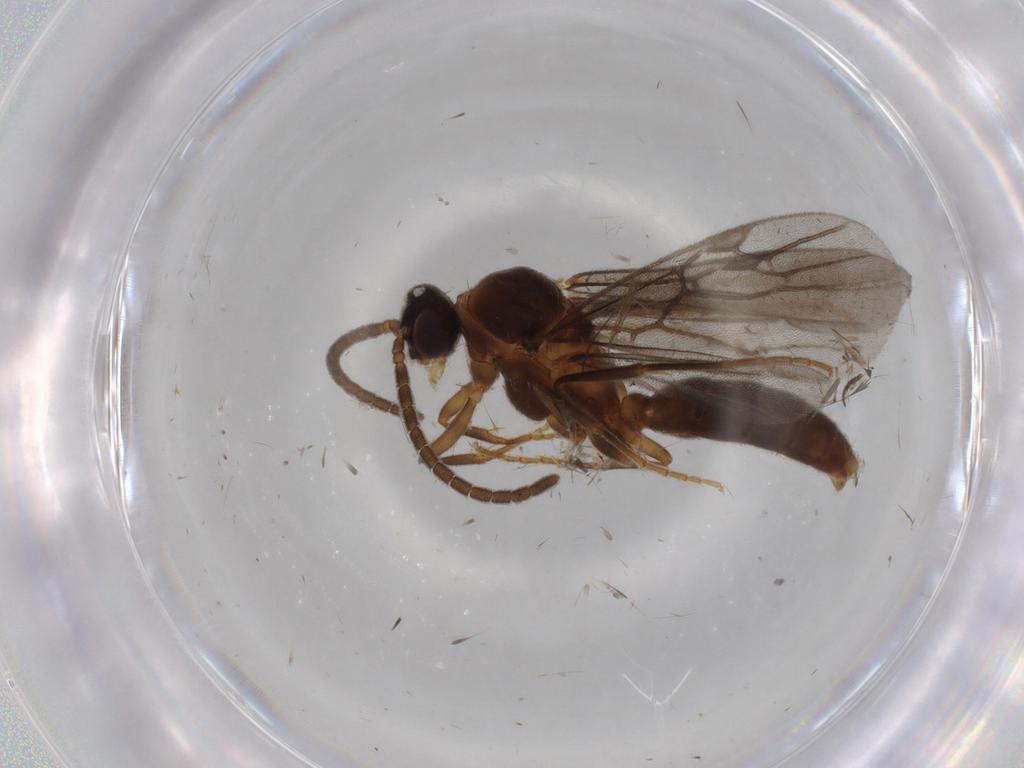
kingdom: Animalia
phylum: Arthropoda
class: Insecta
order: Hymenoptera
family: Formicidae
